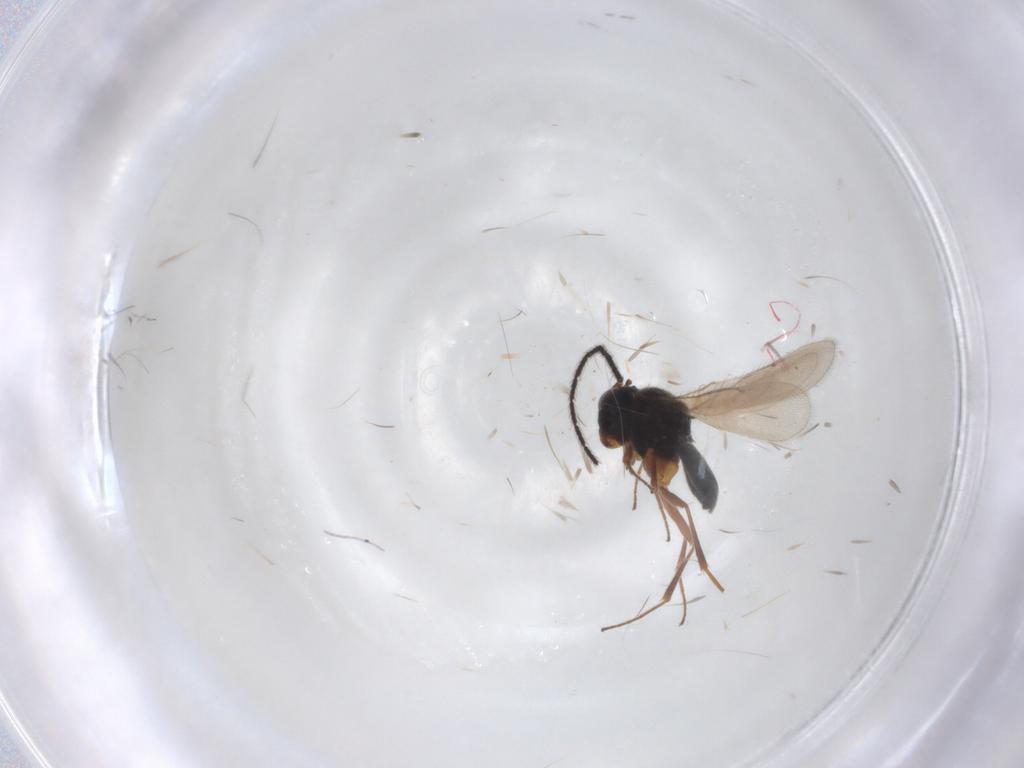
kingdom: Animalia
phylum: Arthropoda
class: Insecta
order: Hymenoptera
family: Scelionidae
